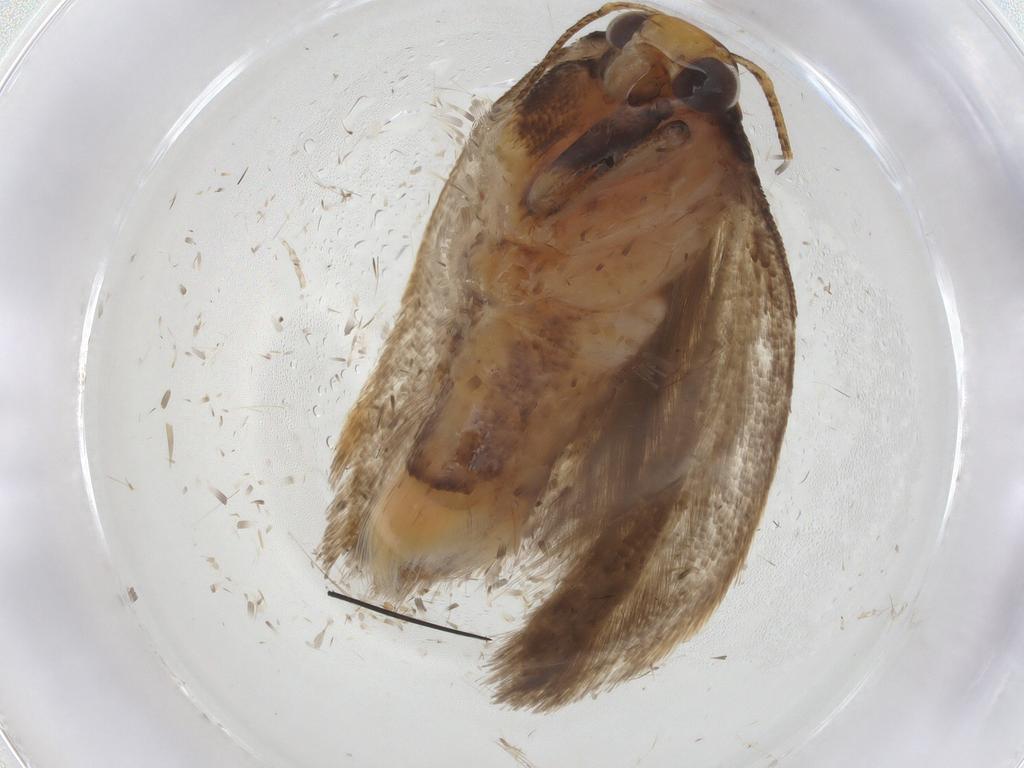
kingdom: Animalia
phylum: Arthropoda
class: Insecta
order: Lepidoptera
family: Gelechiidae
